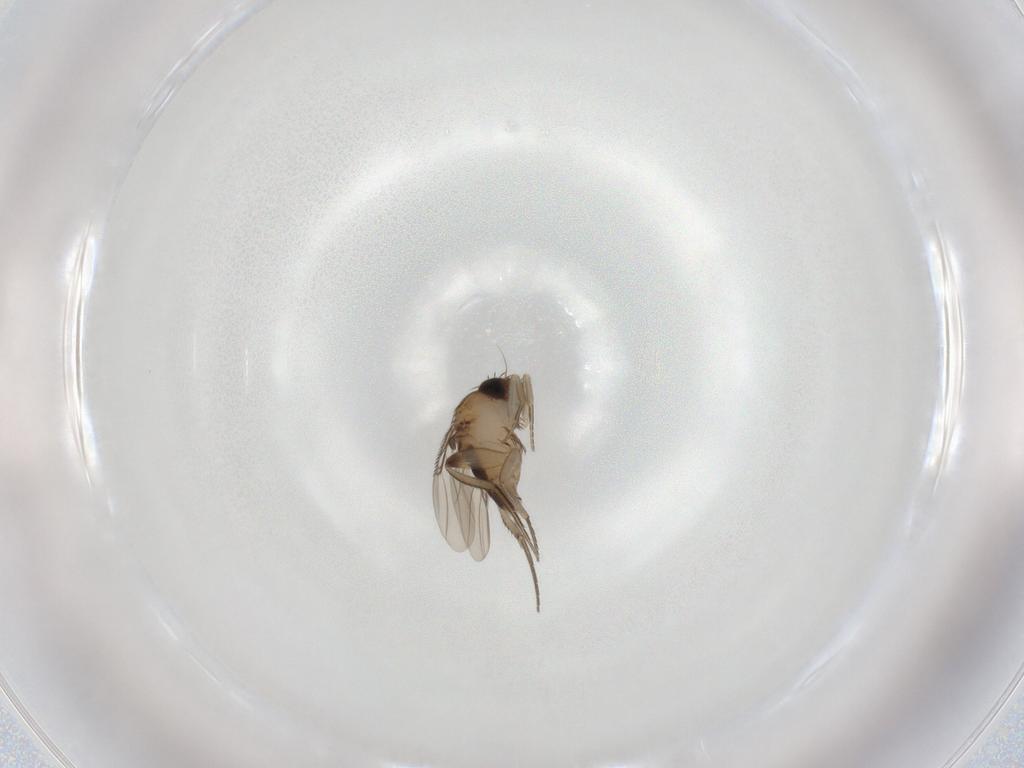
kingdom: Animalia
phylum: Arthropoda
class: Insecta
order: Diptera
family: Phoridae
